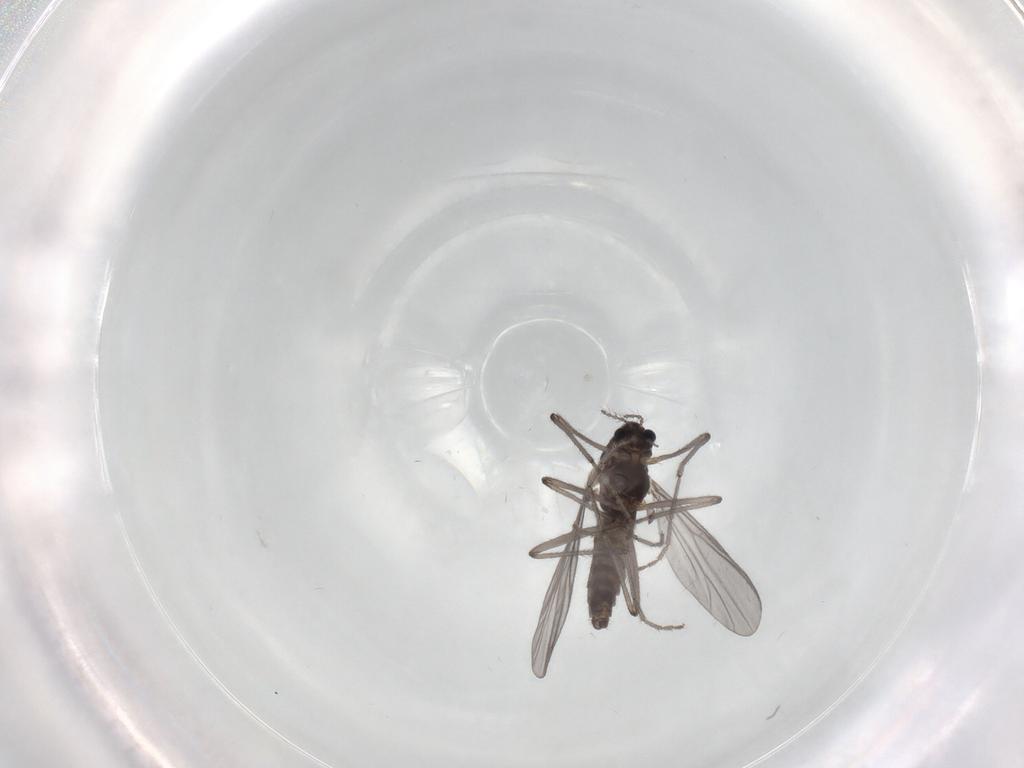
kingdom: Animalia
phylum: Arthropoda
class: Insecta
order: Diptera
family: Chironomidae
